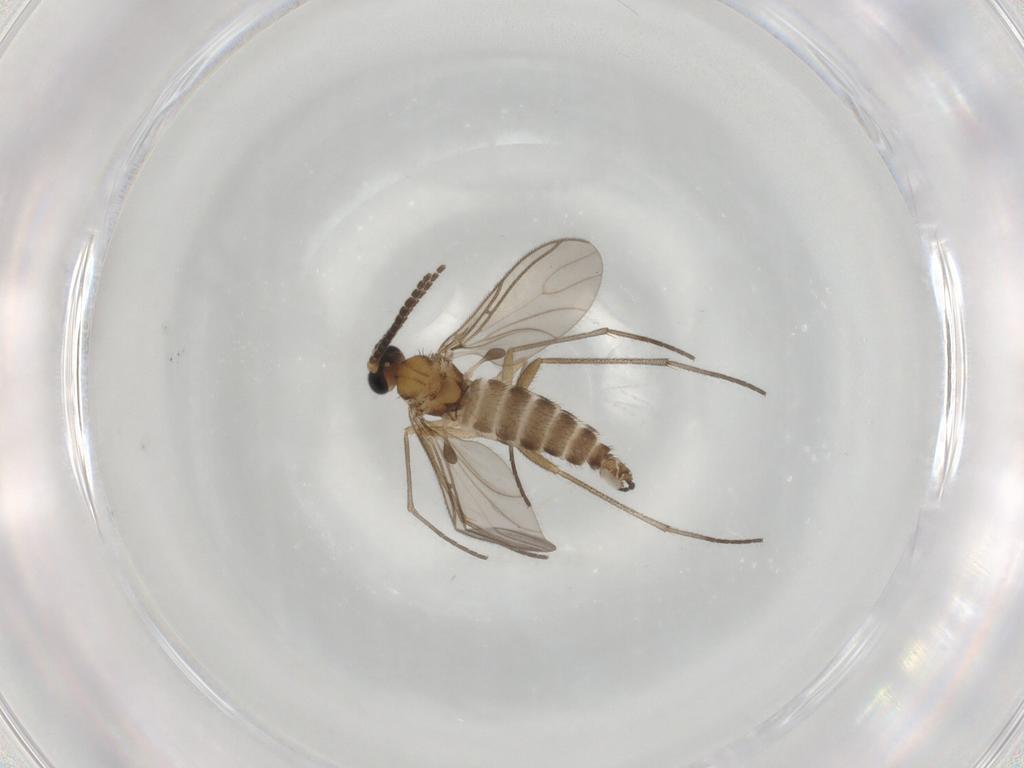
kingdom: Animalia
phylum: Arthropoda
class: Insecta
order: Diptera
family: Sciaridae
